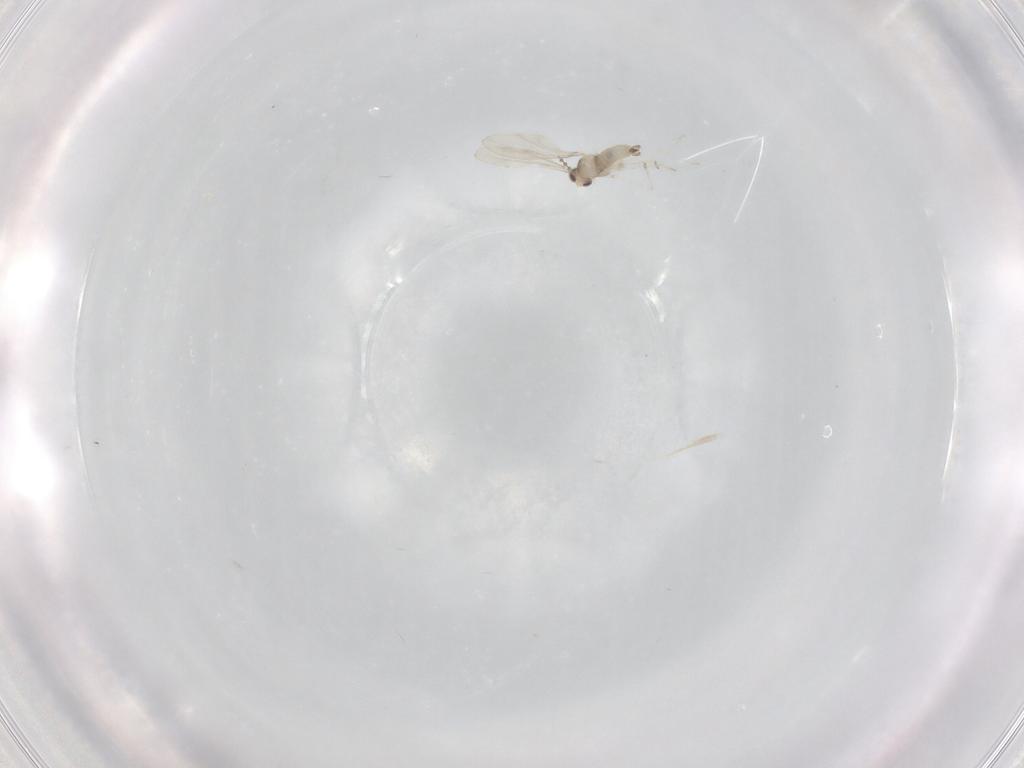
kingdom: Animalia
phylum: Arthropoda
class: Insecta
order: Diptera
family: Cecidomyiidae
